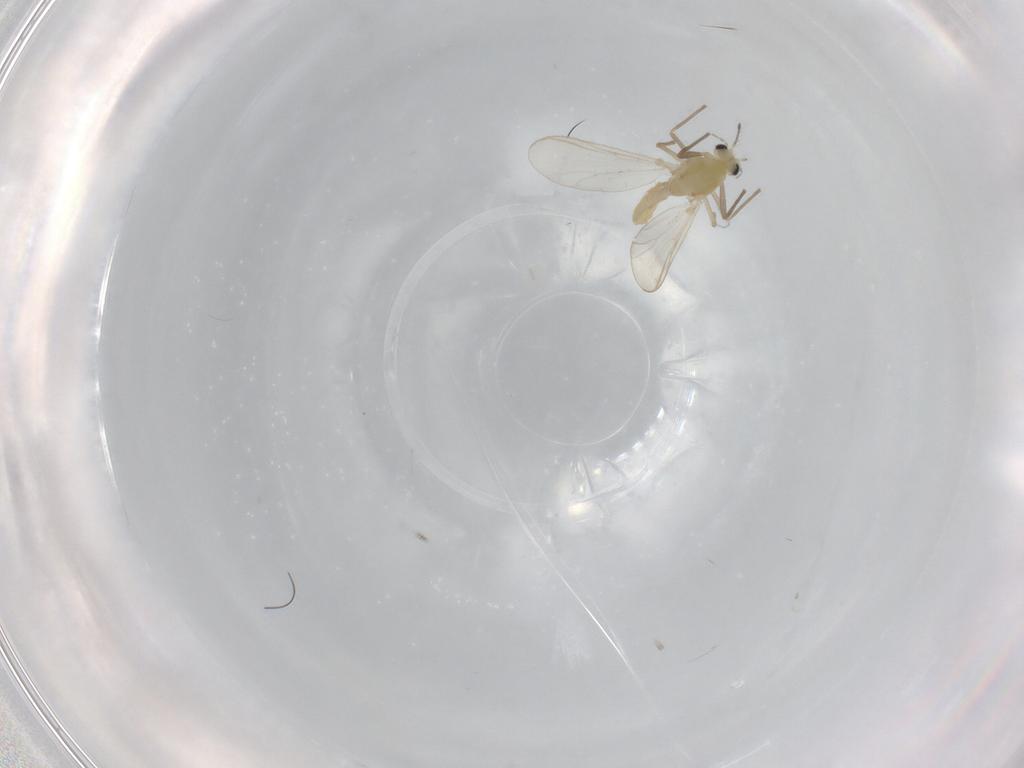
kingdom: Animalia
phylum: Arthropoda
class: Insecta
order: Diptera
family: Chironomidae
